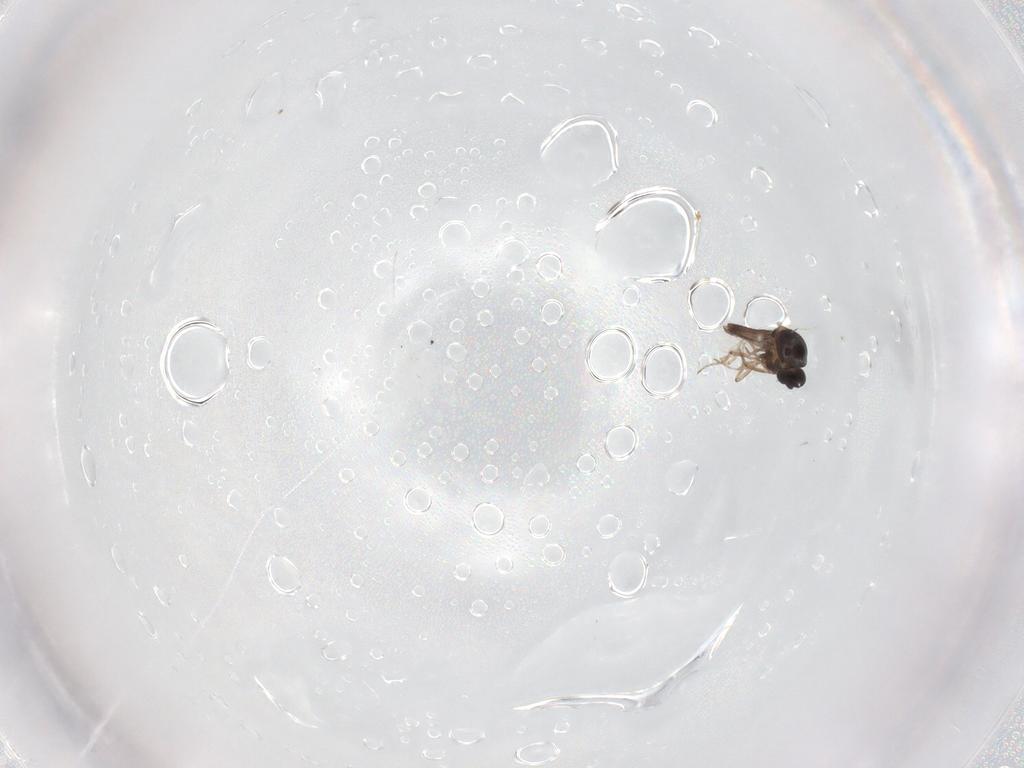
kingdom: Animalia
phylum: Arthropoda
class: Insecta
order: Diptera
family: Ceratopogonidae
